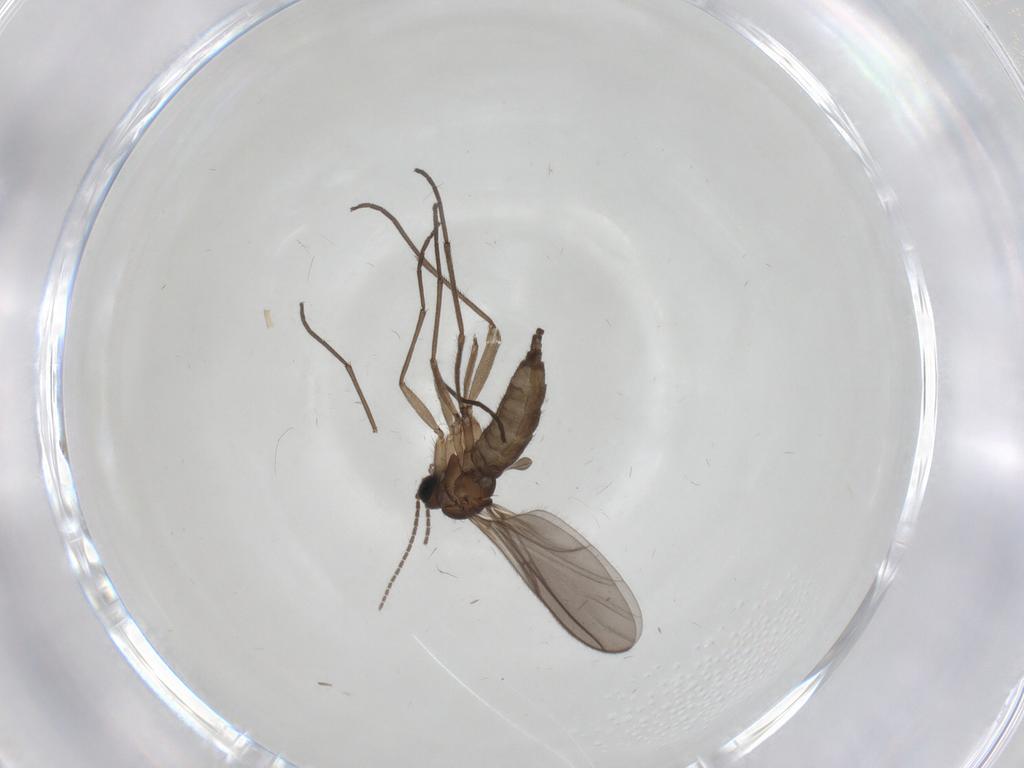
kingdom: Animalia
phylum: Arthropoda
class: Insecta
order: Diptera
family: Sciaridae
